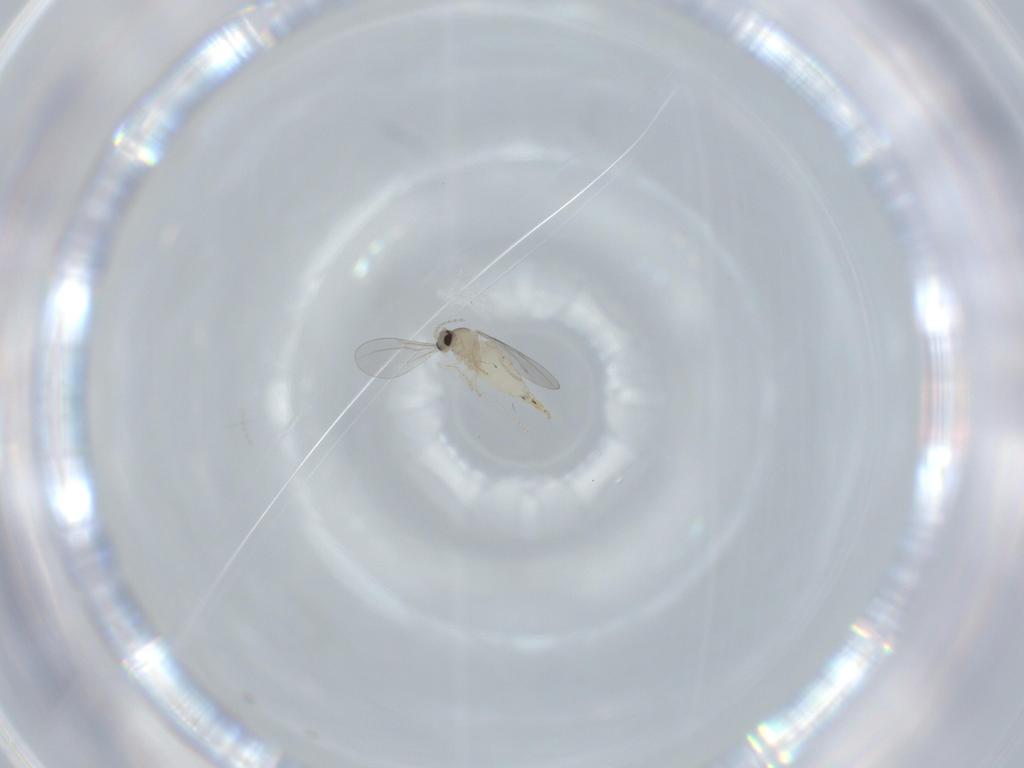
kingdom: Animalia
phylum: Arthropoda
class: Insecta
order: Diptera
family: Cecidomyiidae
